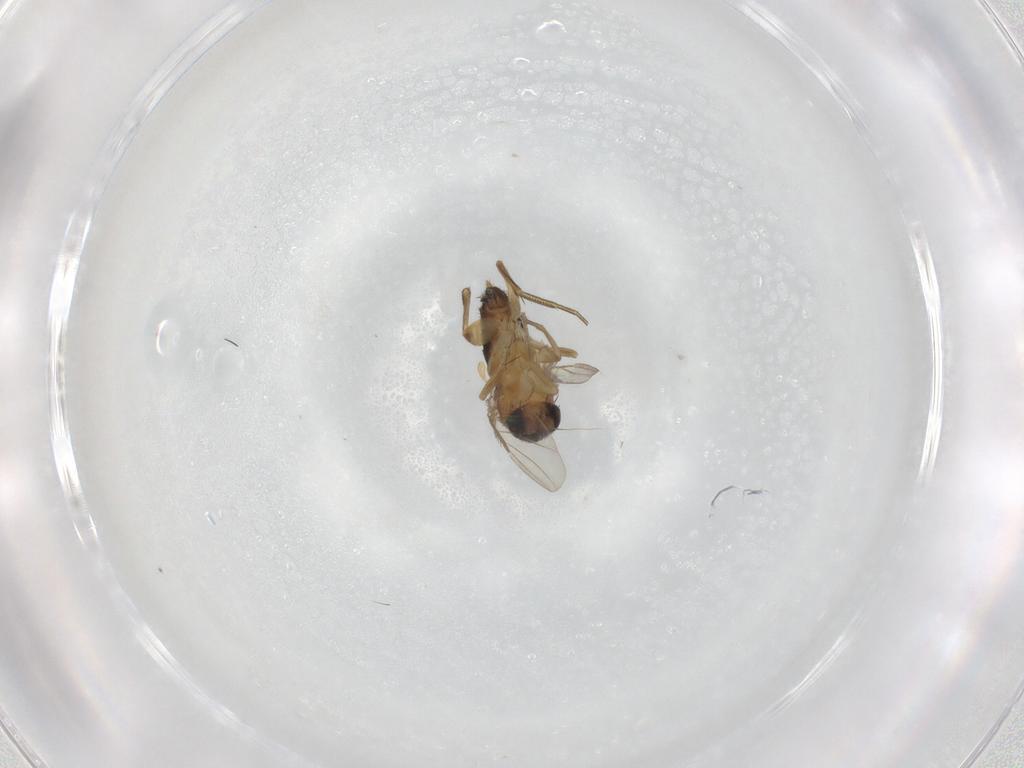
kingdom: Animalia
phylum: Arthropoda
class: Insecta
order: Diptera
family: Phoridae
